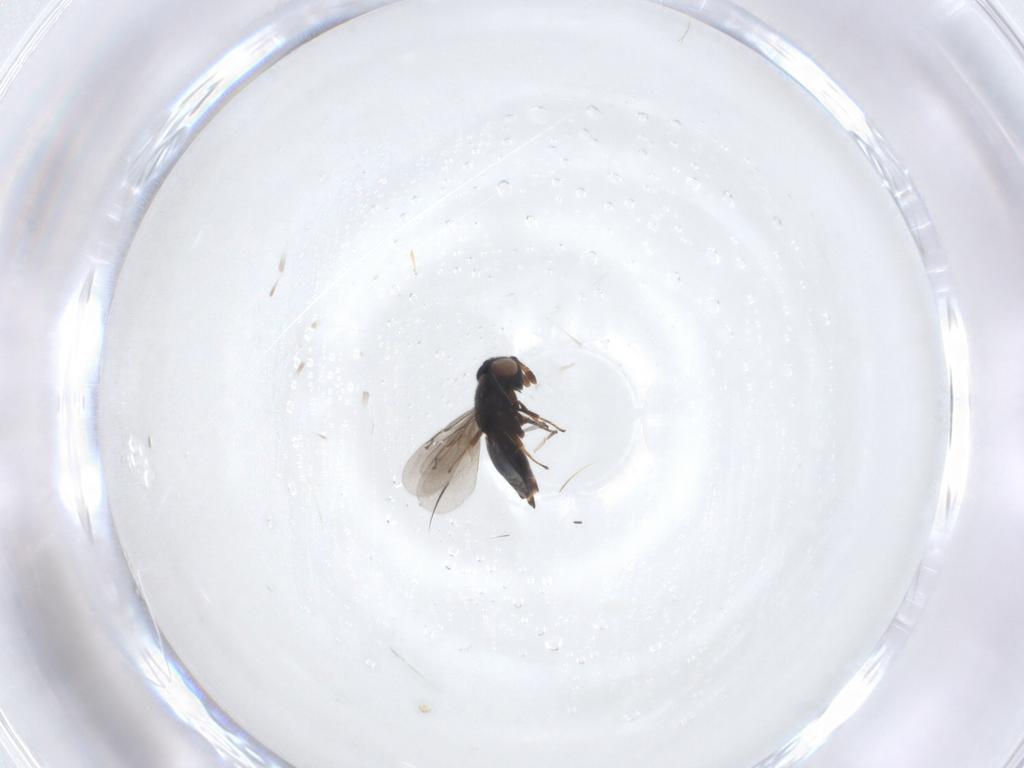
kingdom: Animalia
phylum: Arthropoda
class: Insecta
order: Hymenoptera
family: Eunotidae
